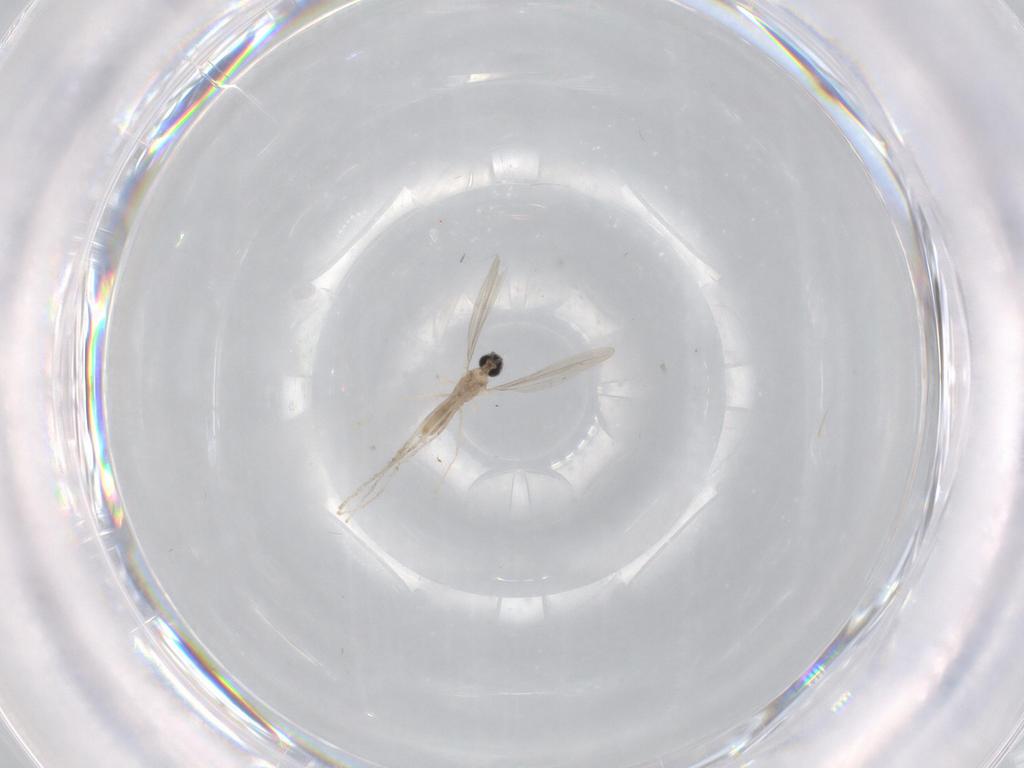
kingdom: Animalia
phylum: Arthropoda
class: Insecta
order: Diptera
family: Cecidomyiidae
